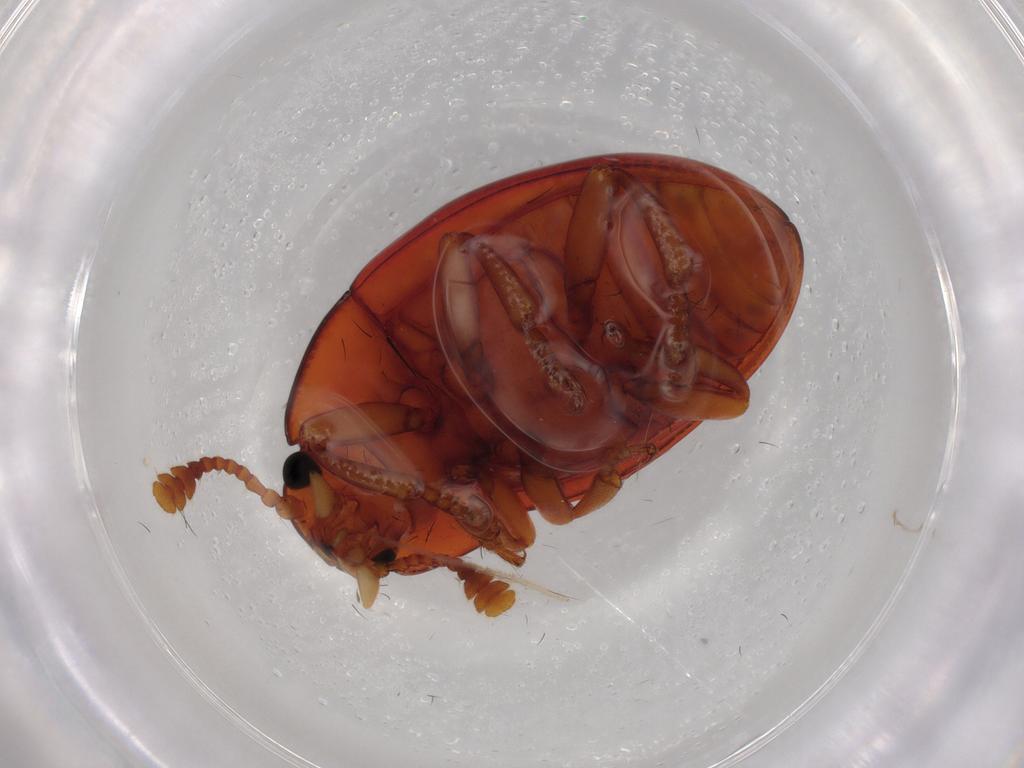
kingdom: Animalia
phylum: Arthropoda
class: Insecta
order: Coleoptera
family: Erotylidae
